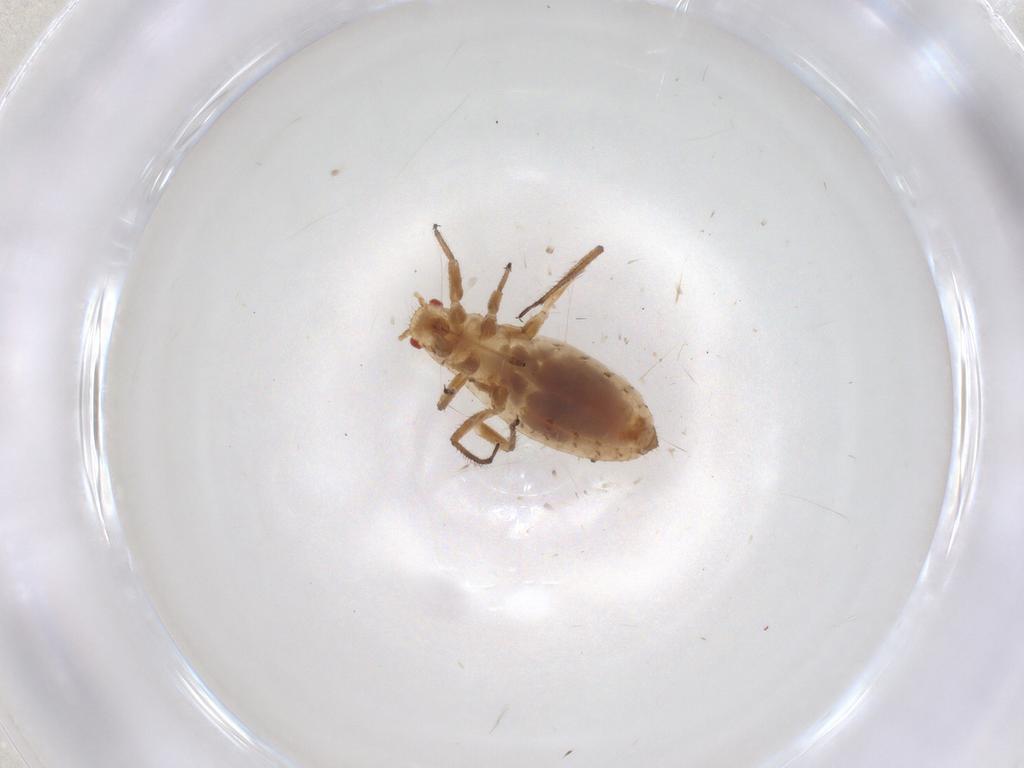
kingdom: Animalia
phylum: Arthropoda
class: Insecta
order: Hemiptera
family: Lachnidae
